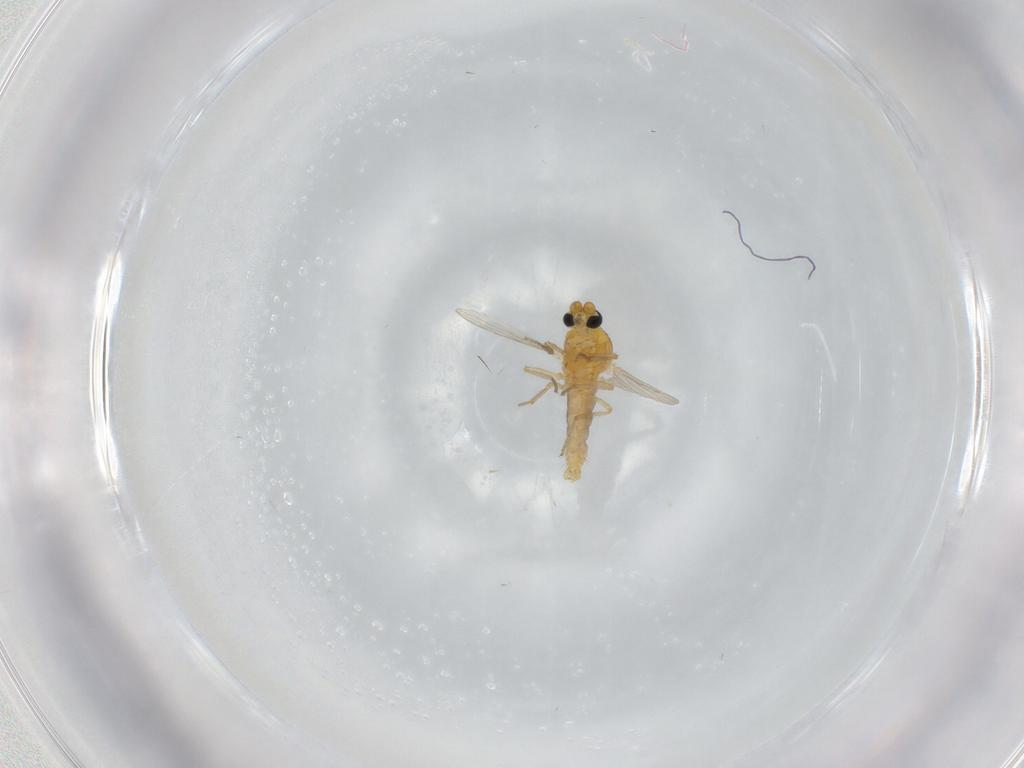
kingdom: Animalia
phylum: Arthropoda
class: Insecta
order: Diptera
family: Ceratopogonidae
